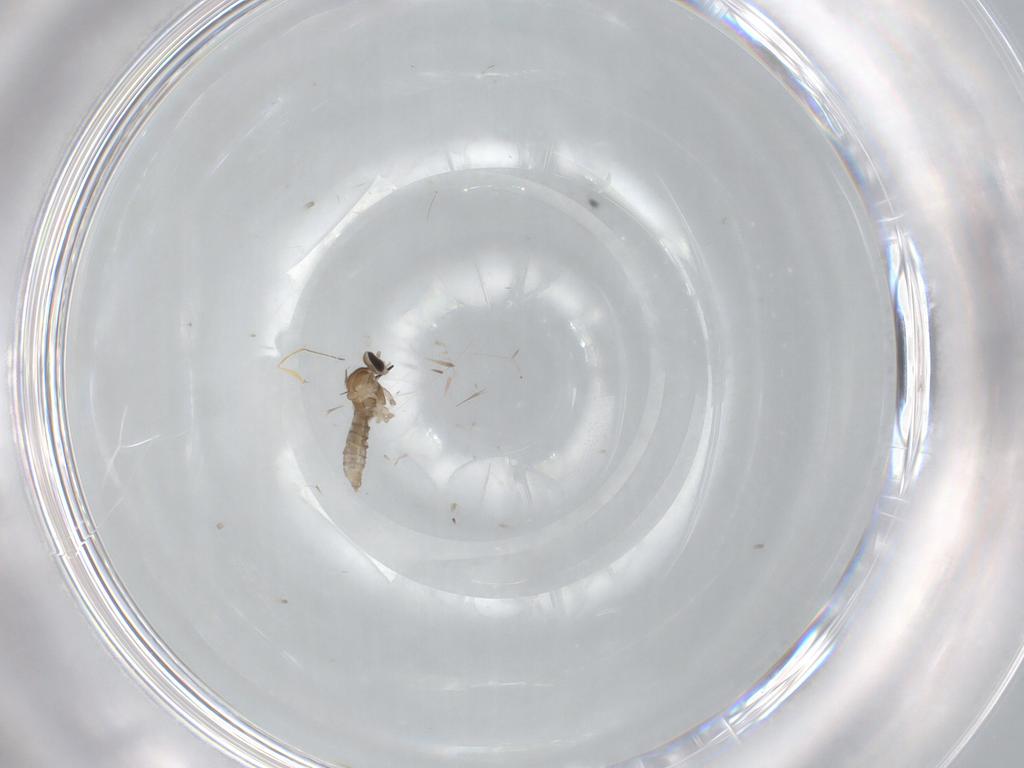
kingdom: Animalia
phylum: Arthropoda
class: Insecta
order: Diptera
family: Cecidomyiidae
